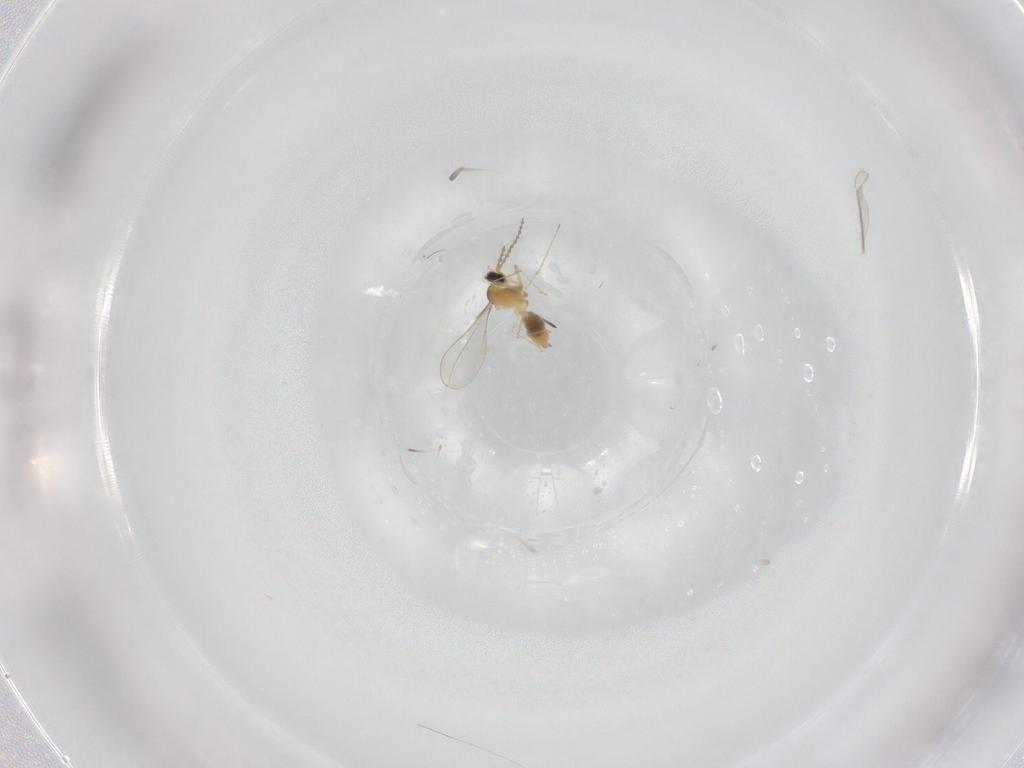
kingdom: Animalia
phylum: Arthropoda
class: Insecta
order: Diptera
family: Cecidomyiidae
